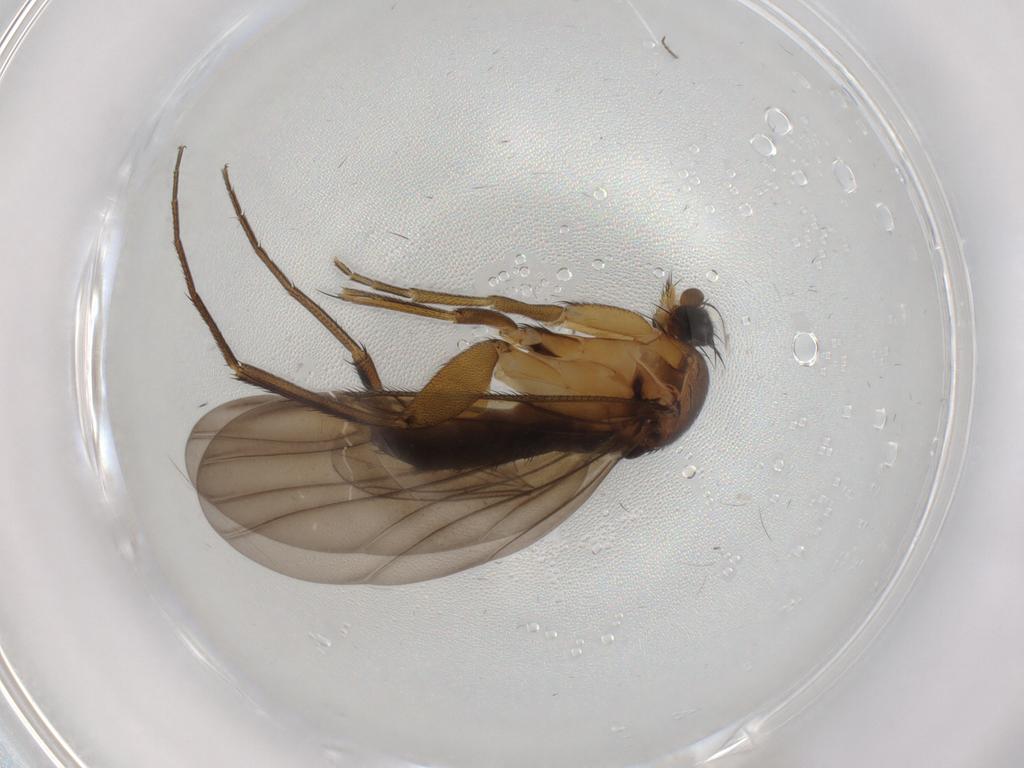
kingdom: Animalia
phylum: Arthropoda
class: Insecta
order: Diptera
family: Phoridae
